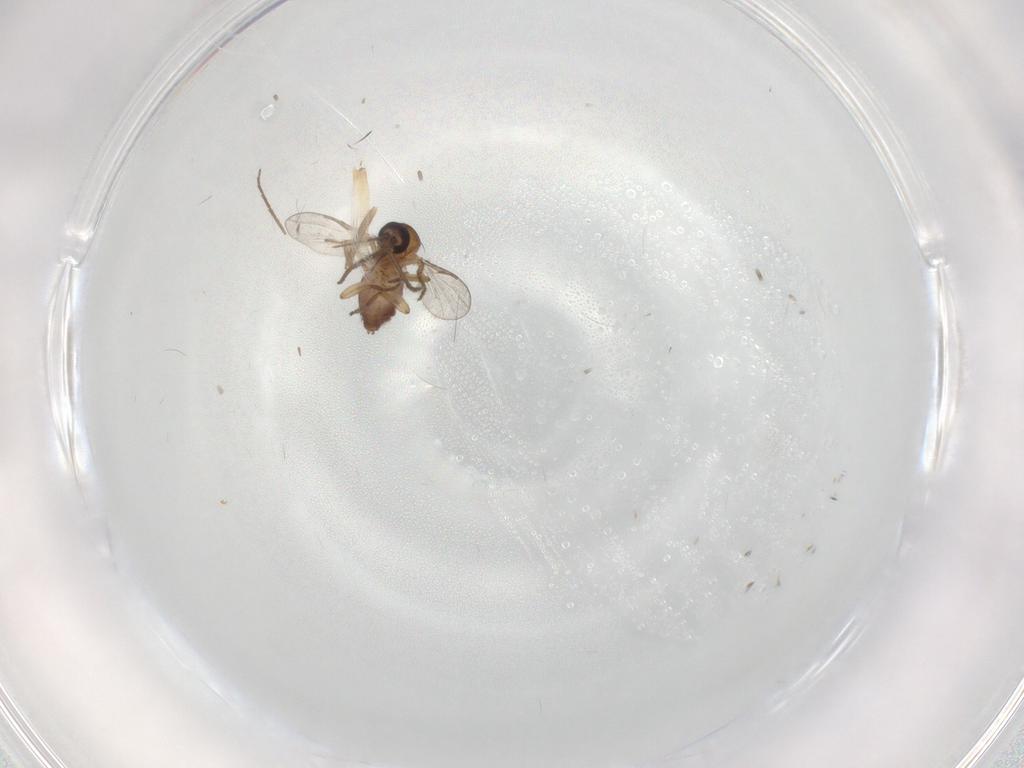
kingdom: Animalia
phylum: Arthropoda
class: Insecta
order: Diptera
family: Chironomidae
